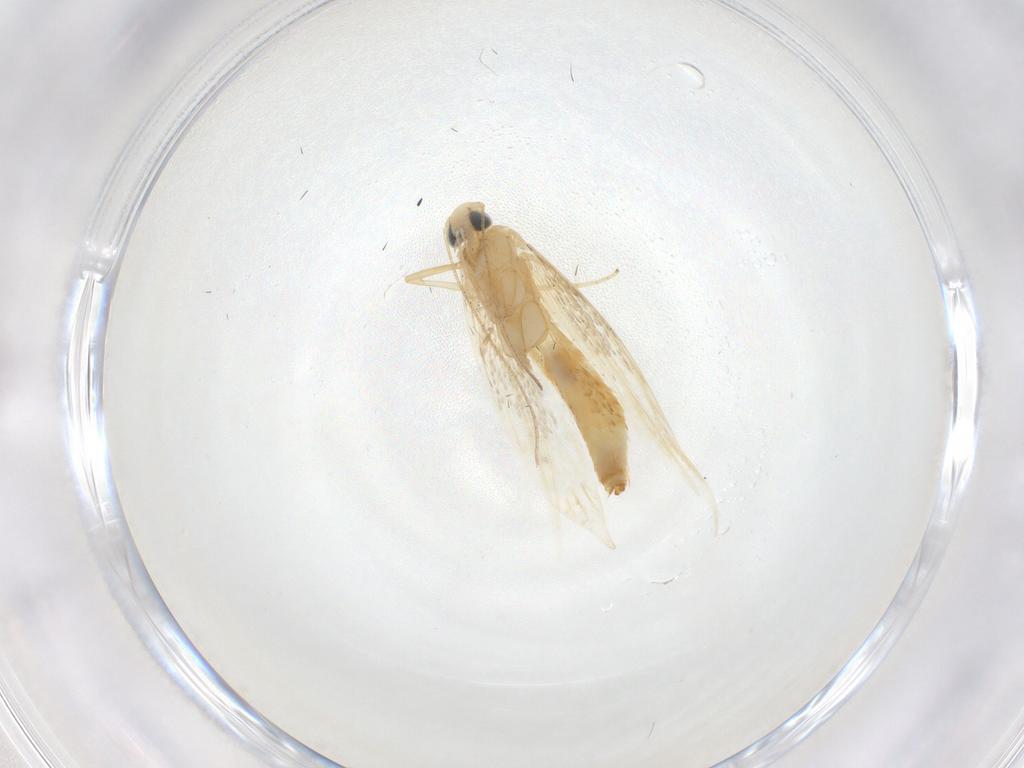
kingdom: Animalia
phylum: Arthropoda
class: Insecta
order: Lepidoptera
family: Tischeriidae
